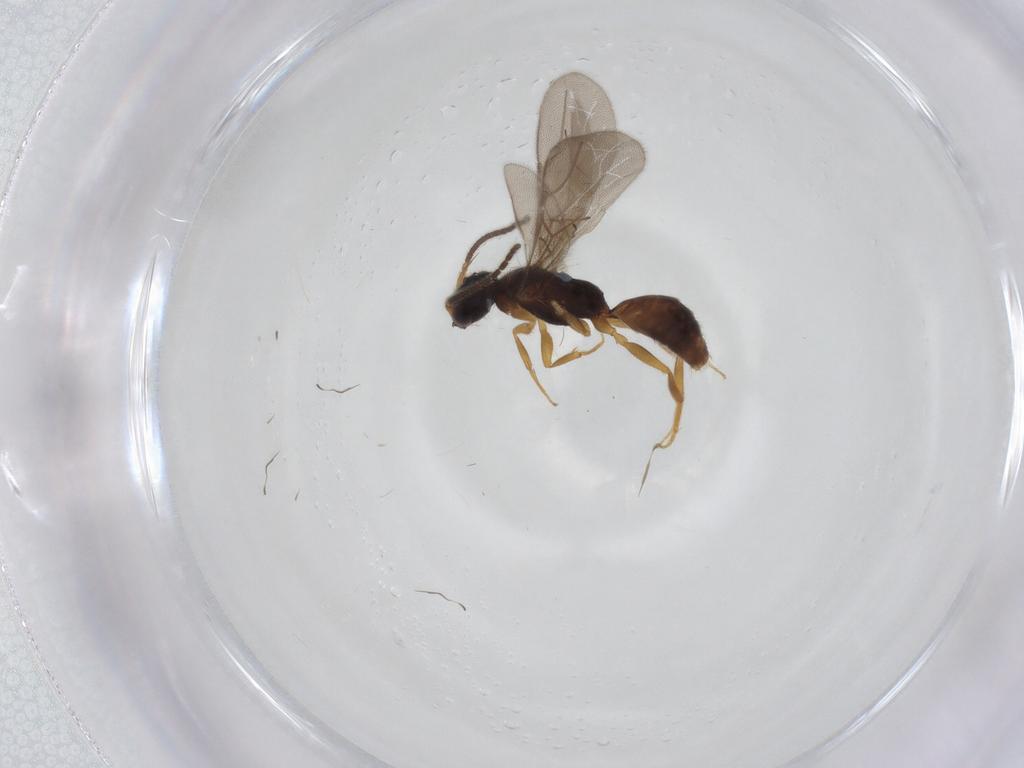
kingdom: Animalia
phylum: Arthropoda
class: Insecta
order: Hymenoptera
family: Bethylidae
